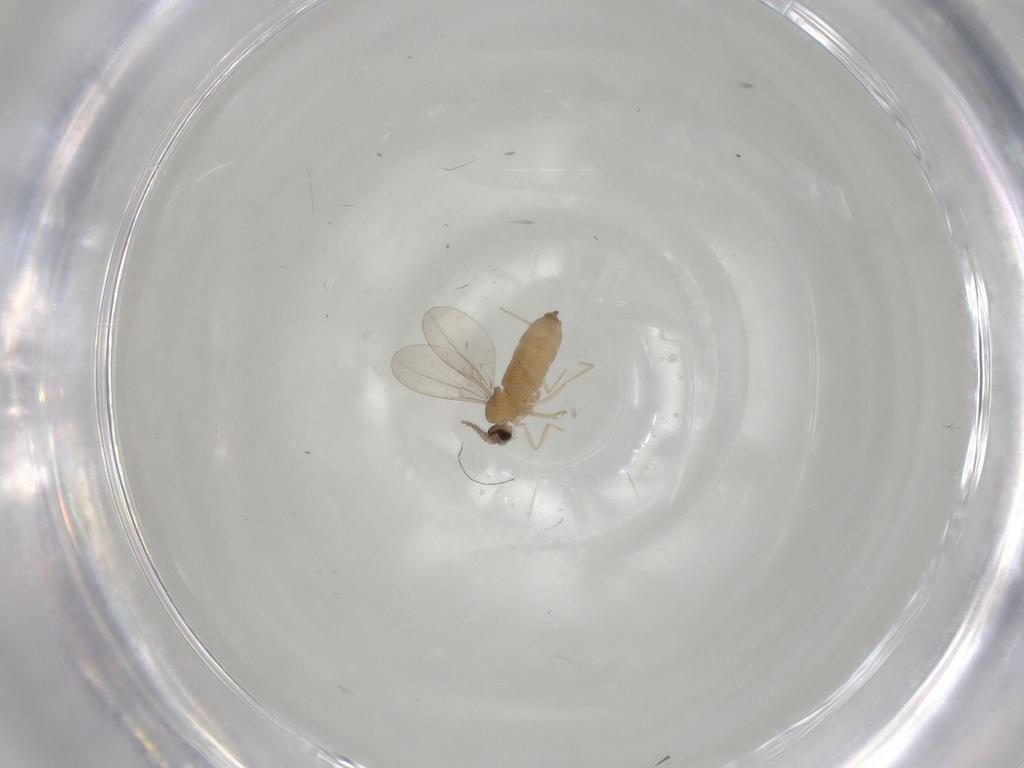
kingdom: Animalia
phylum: Arthropoda
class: Insecta
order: Diptera
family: Cecidomyiidae
